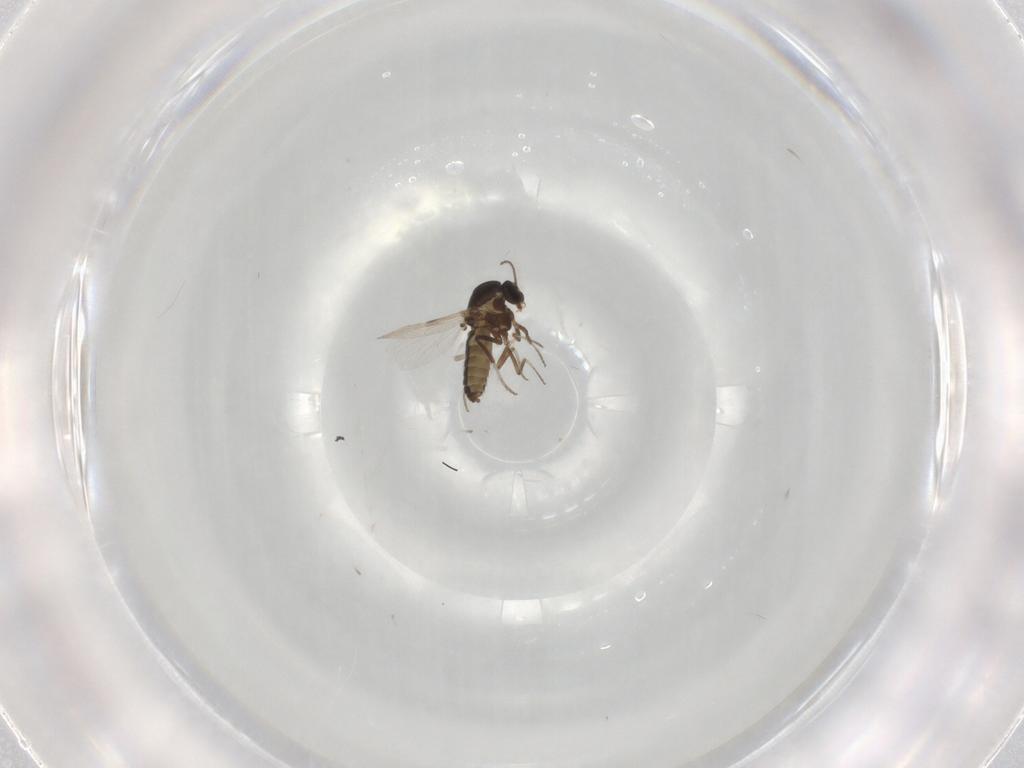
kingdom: Animalia
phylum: Arthropoda
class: Insecta
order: Diptera
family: Ceratopogonidae
